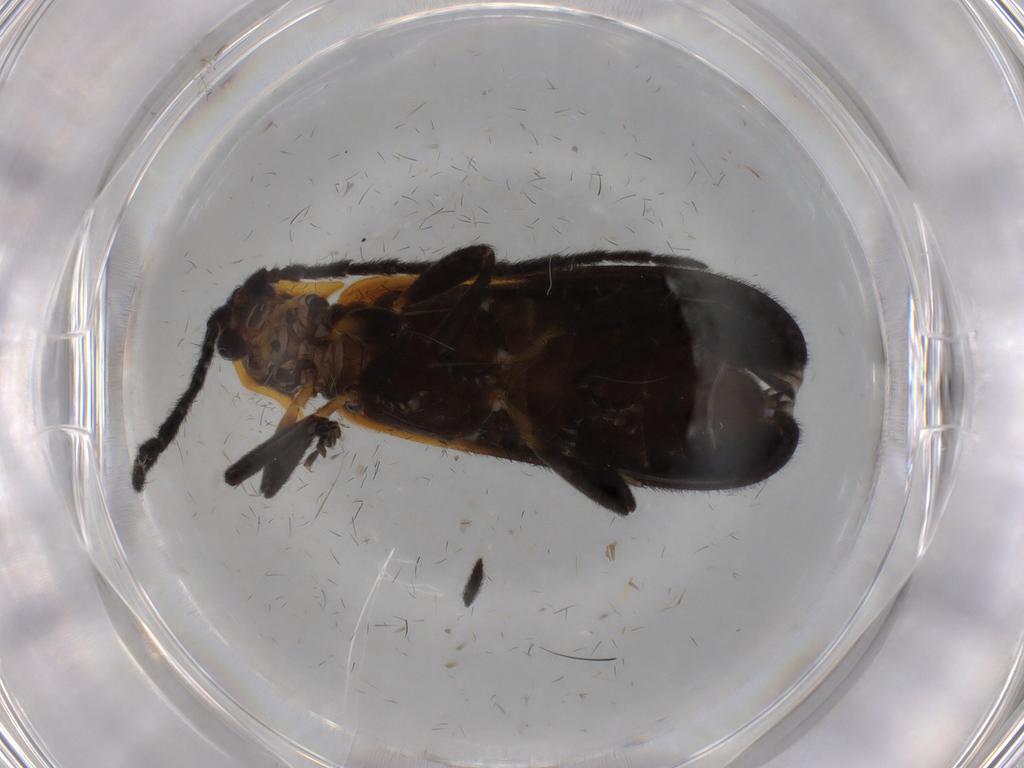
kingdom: Animalia
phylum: Arthropoda
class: Insecta
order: Coleoptera
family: Lycidae
